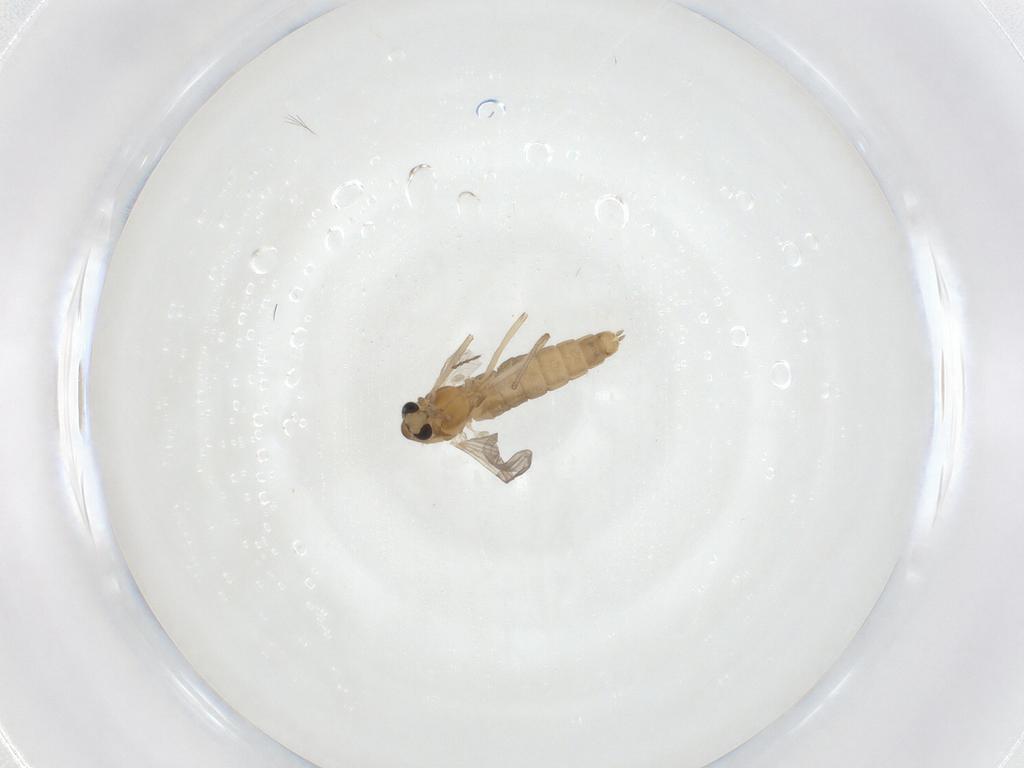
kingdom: Animalia
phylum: Arthropoda
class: Insecta
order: Diptera
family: Chironomidae
